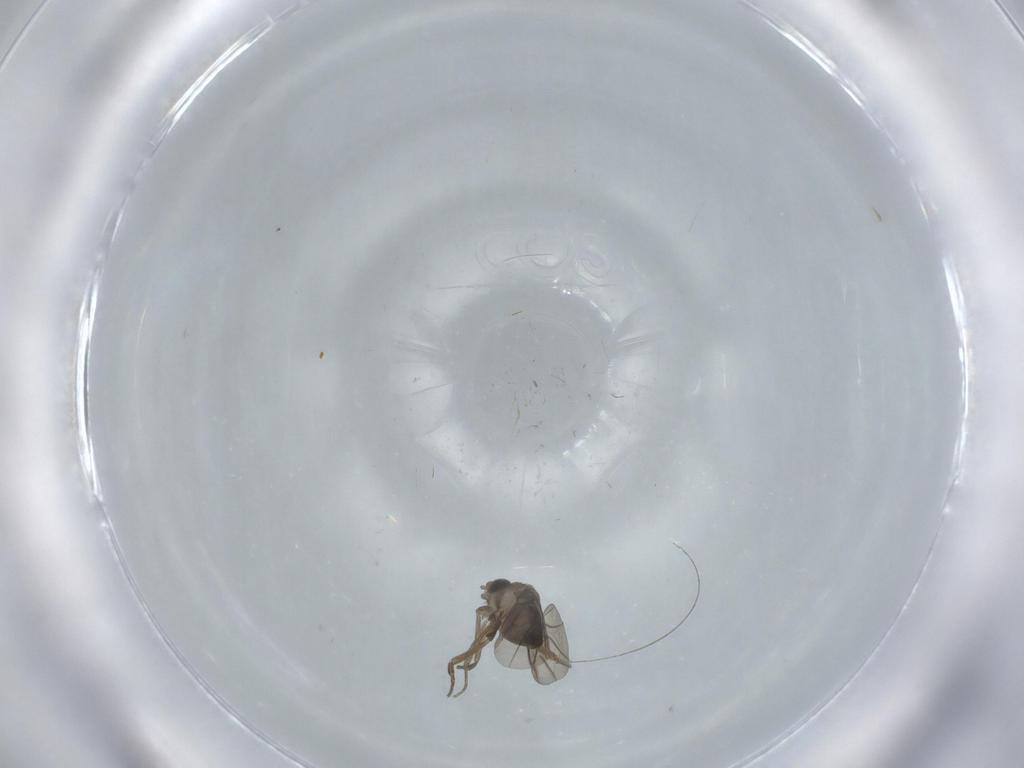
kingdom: Animalia
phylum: Arthropoda
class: Insecta
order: Diptera
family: Phoridae
